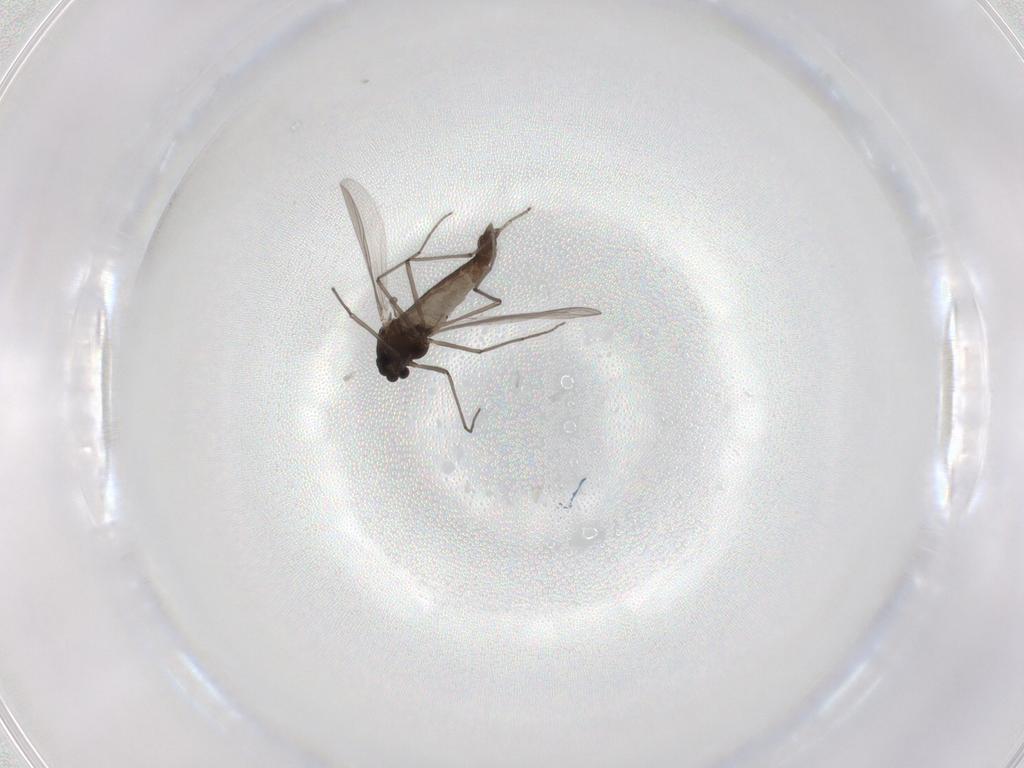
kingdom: Animalia
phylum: Arthropoda
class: Insecta
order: Diptera
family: Chironomidae
